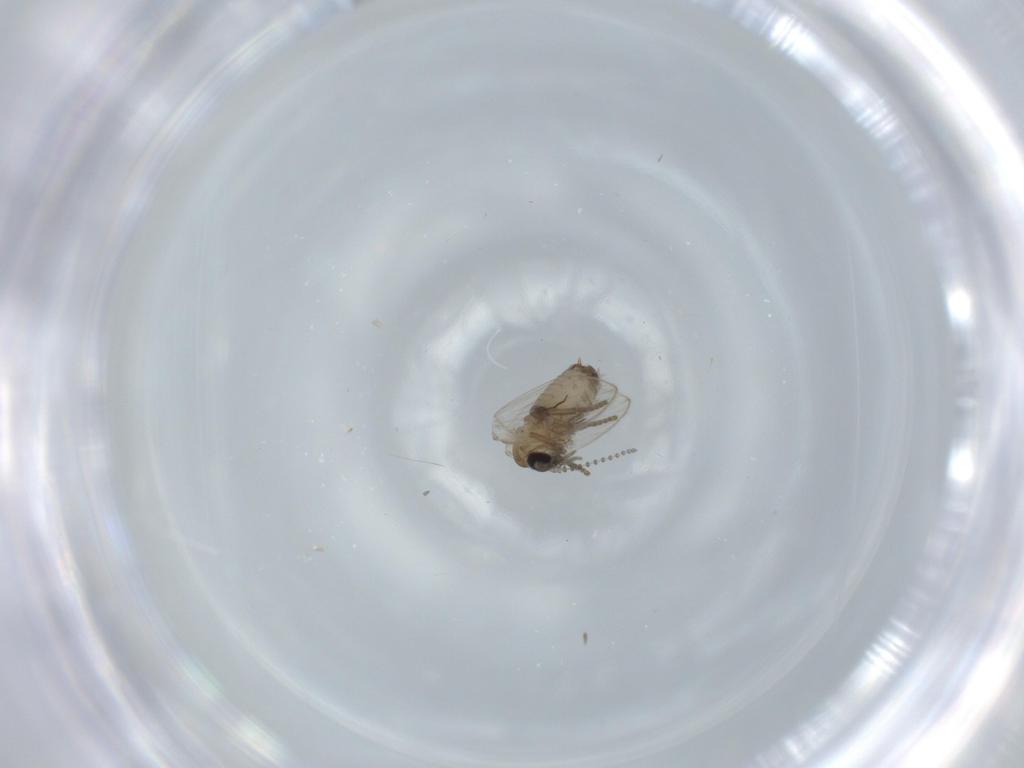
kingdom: Animalia
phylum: Arthropoda
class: Insecta
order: Diptera
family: Psychodidae
